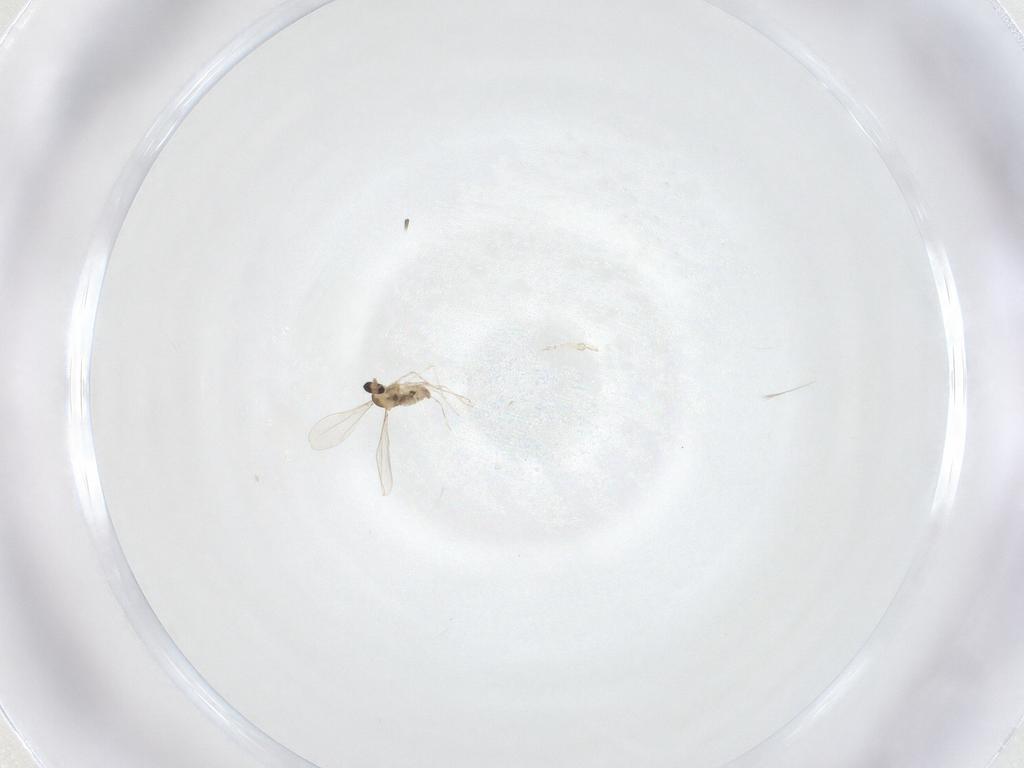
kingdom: Animalia
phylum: Arthropoda
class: Insecta
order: Diptera
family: Cecidomyiidae
